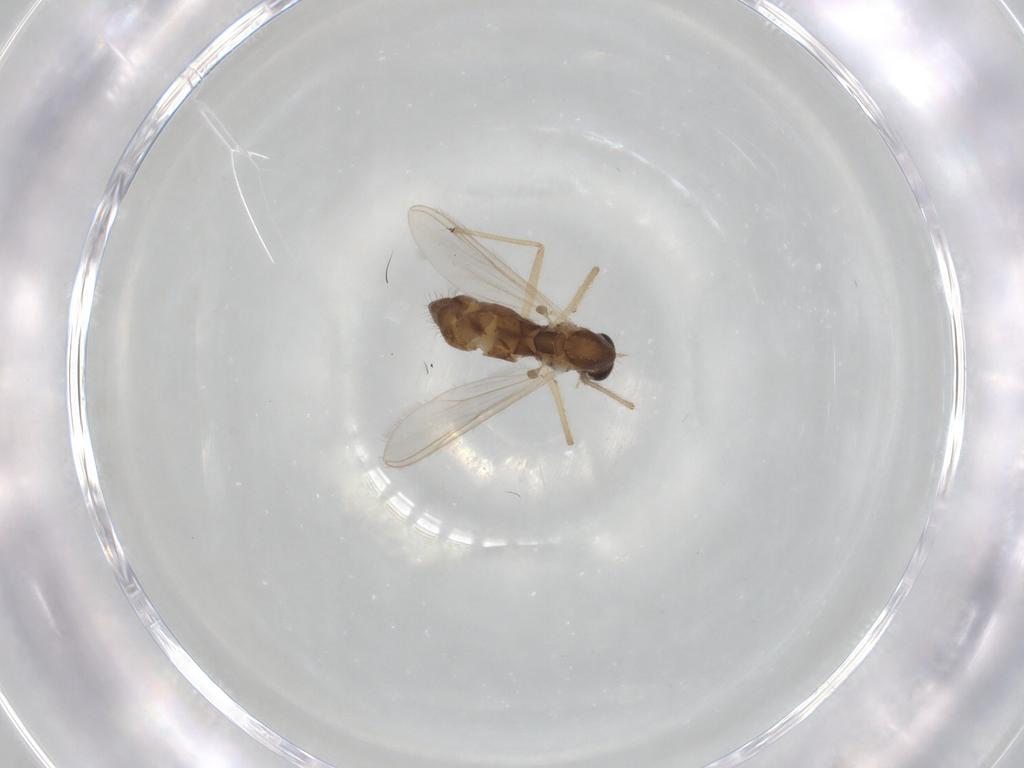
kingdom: Animalia
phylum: Arthropoda
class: Insecta
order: Diptera
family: Chironomidae
